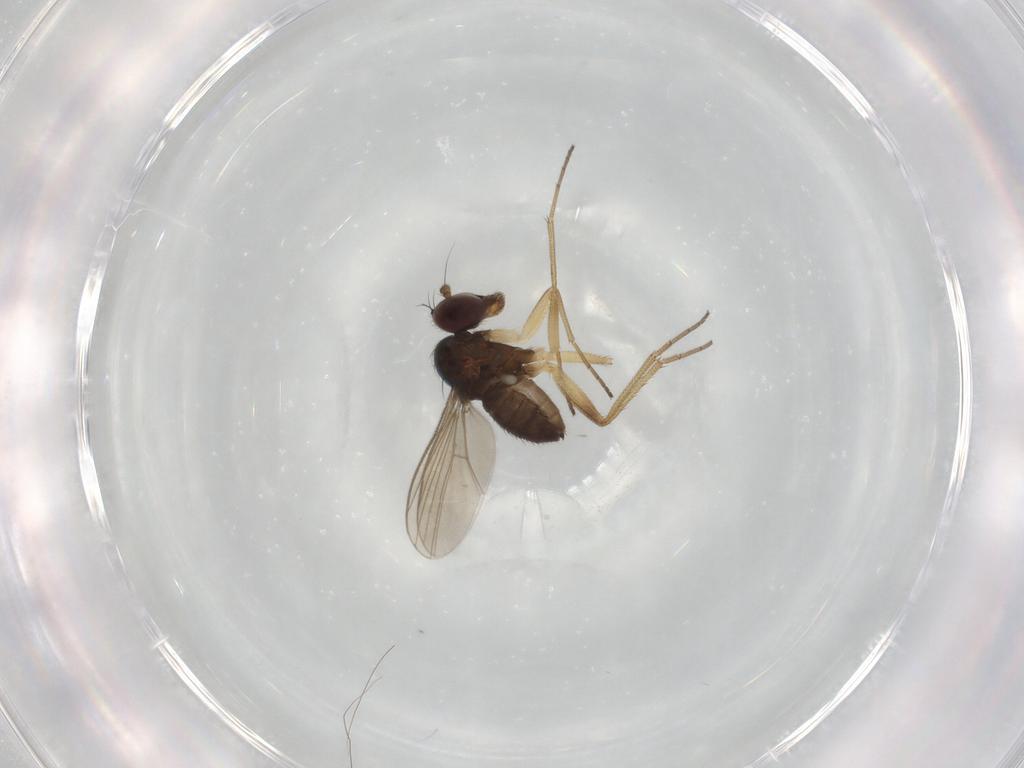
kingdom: Animalia
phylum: Arthropoda
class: Insecta
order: Diptera
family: Dolichopodidae
